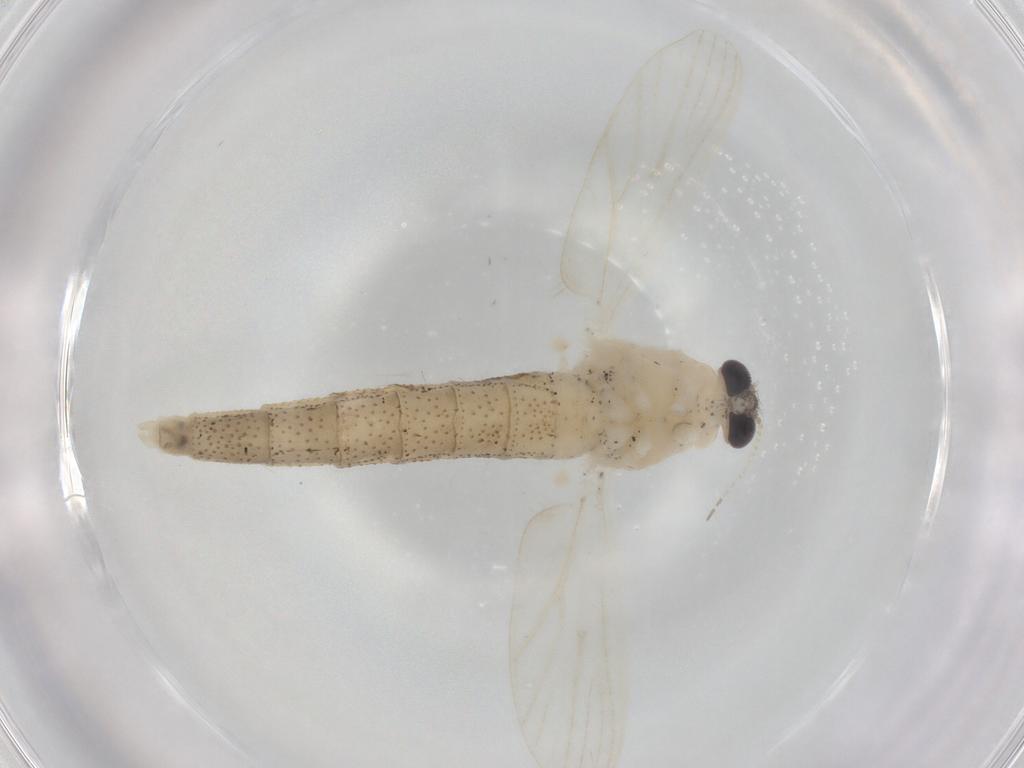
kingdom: Animalia
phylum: Arthropoda
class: Insecta
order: Diptera
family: Chaoboridae
